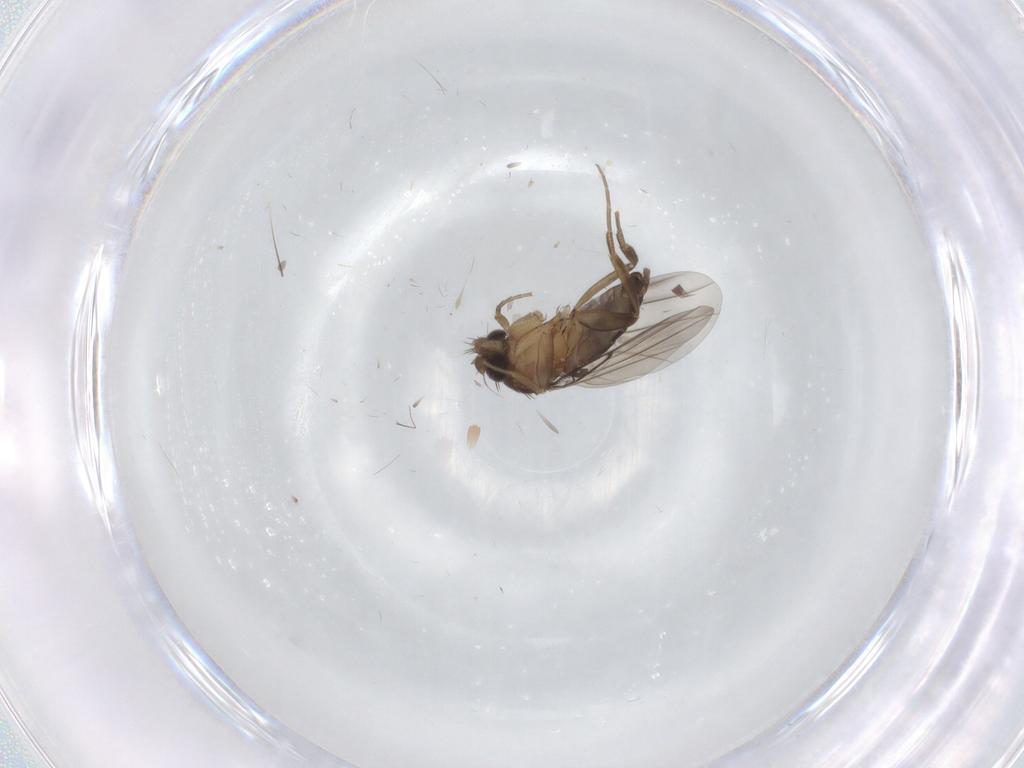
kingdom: Animalia
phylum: Arthropoda
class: Insecta
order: Diptera
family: Phoridae
